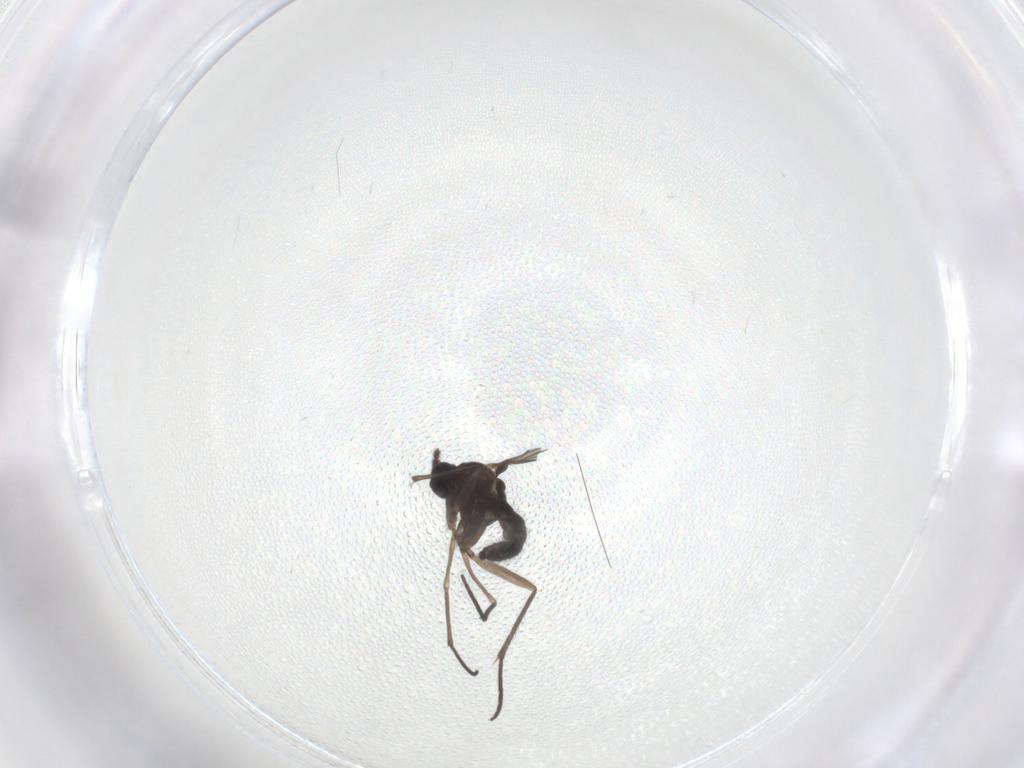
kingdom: Animalia
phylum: Arthropoda
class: Insecta
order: Diptera
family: Sciaridae
